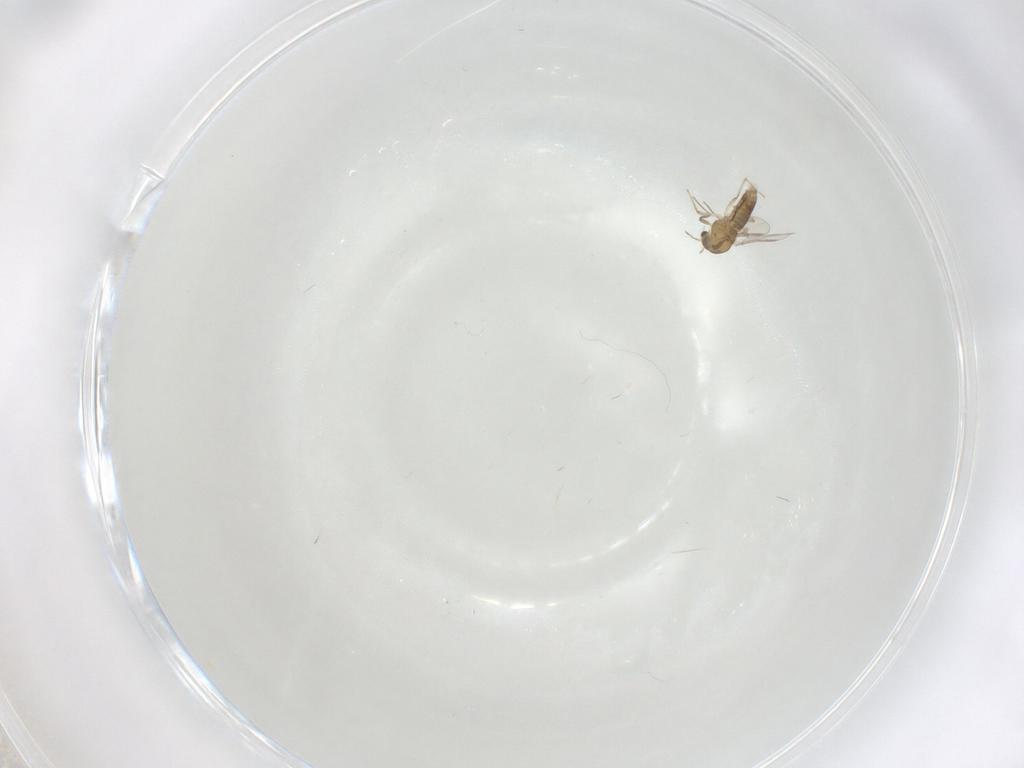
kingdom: Animalia
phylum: Arthropoda
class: Insecta
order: Diptera
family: Chironomidae
